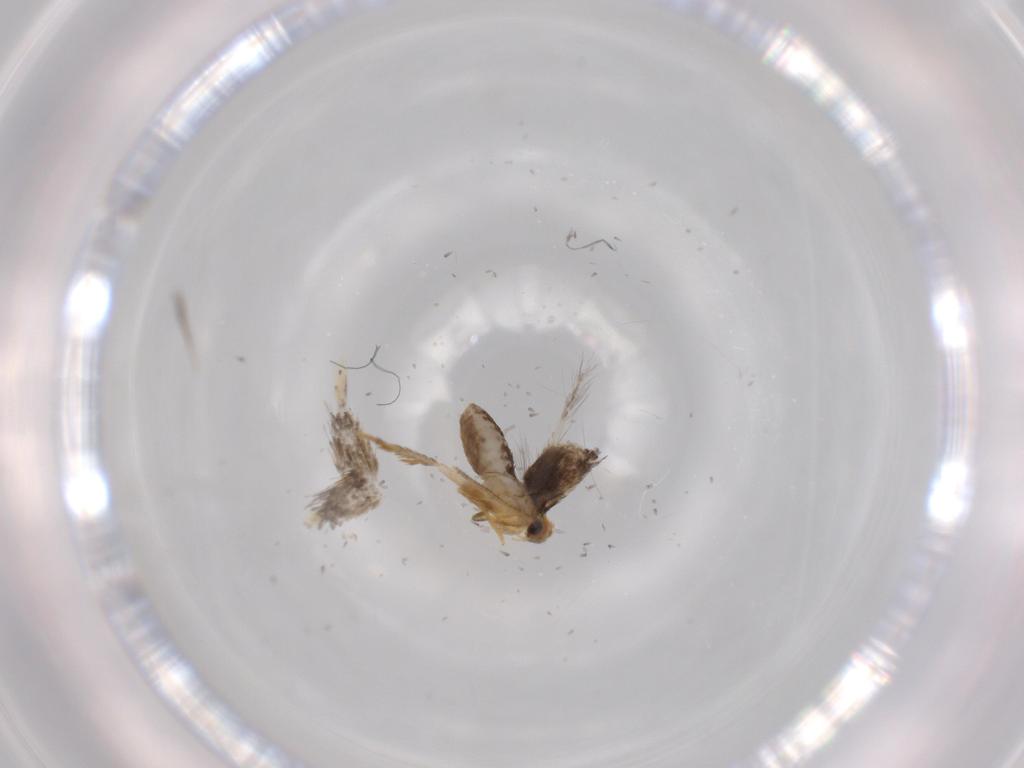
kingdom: Animalia
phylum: Arthropoda
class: Insecta
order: Lepidoptera
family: Nepticulidae
